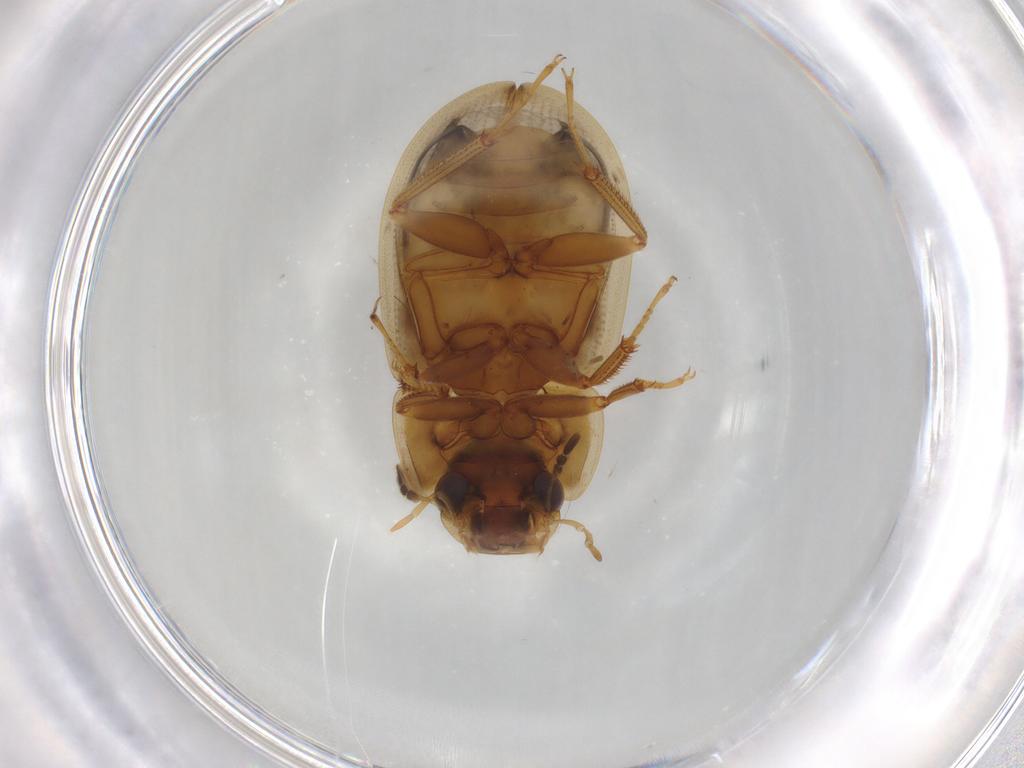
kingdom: Animalia
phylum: Arthropoda
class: Insecta
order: Coleoptera
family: Hydrophilidae
